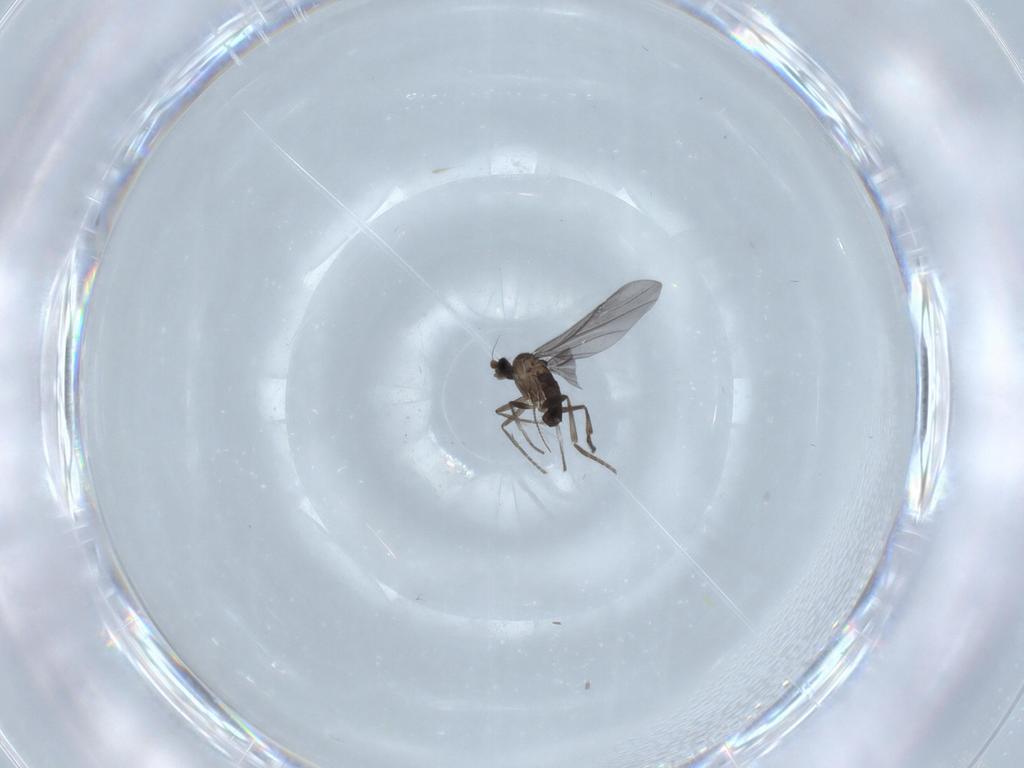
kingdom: Animalia
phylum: Arthropoda
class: Insecta
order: Diptera
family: Phoridae
